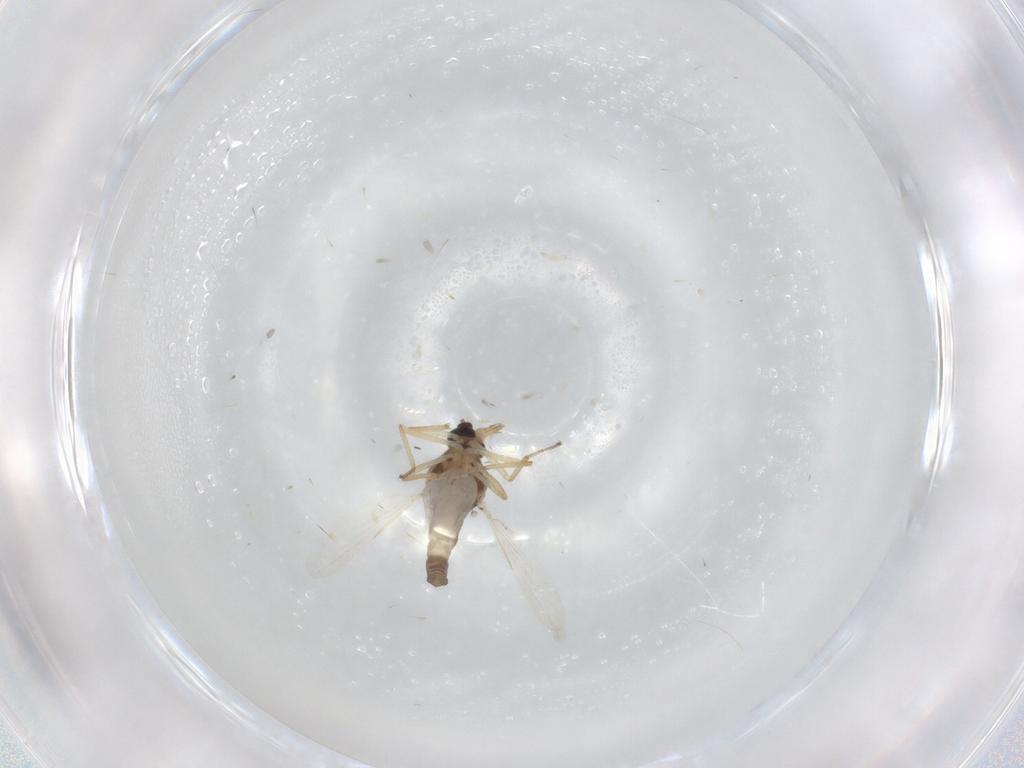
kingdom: Animalia
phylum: Arthropoda
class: Insecta
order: Diptera
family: Ceratopogonidae
